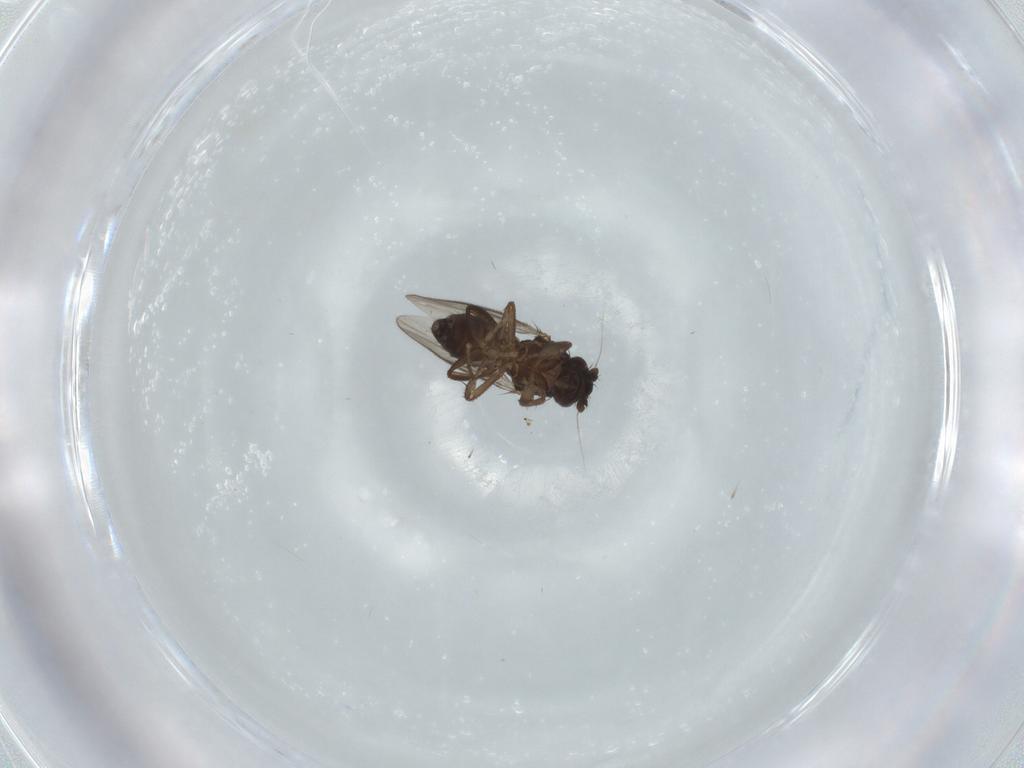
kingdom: Animalia
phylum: Arthropoda
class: Insecta
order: Diptera
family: Sphaeroceridae
